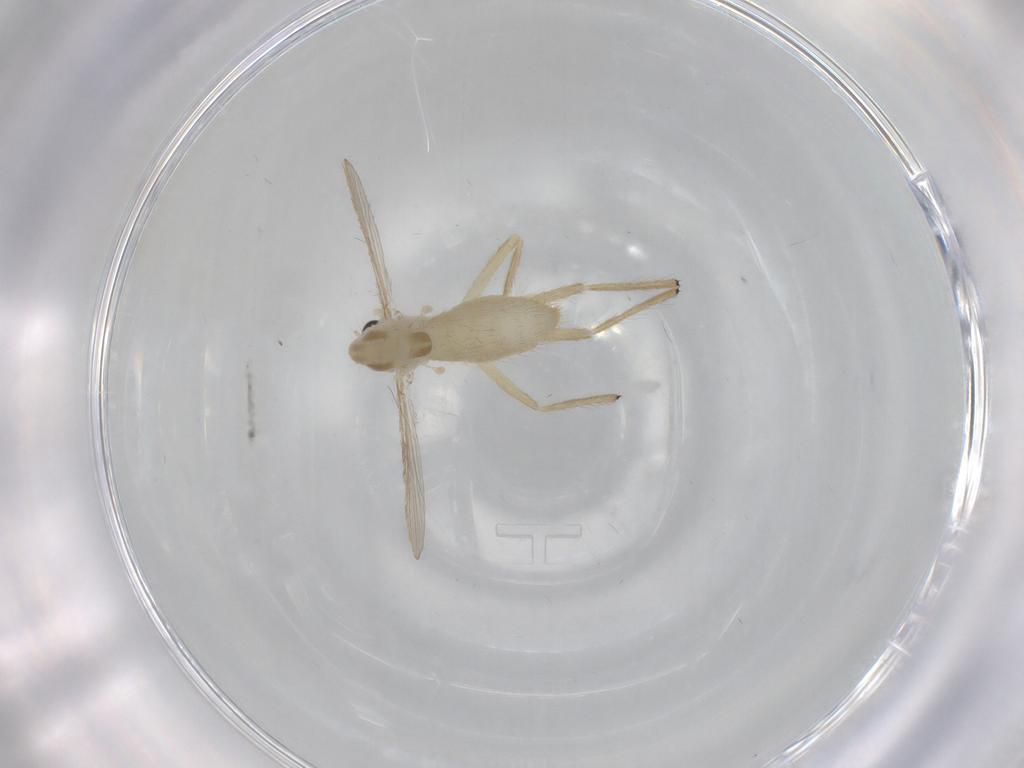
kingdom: Animalia
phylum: Arthropoda
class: Insecta
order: Diptera
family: Chironomidae
